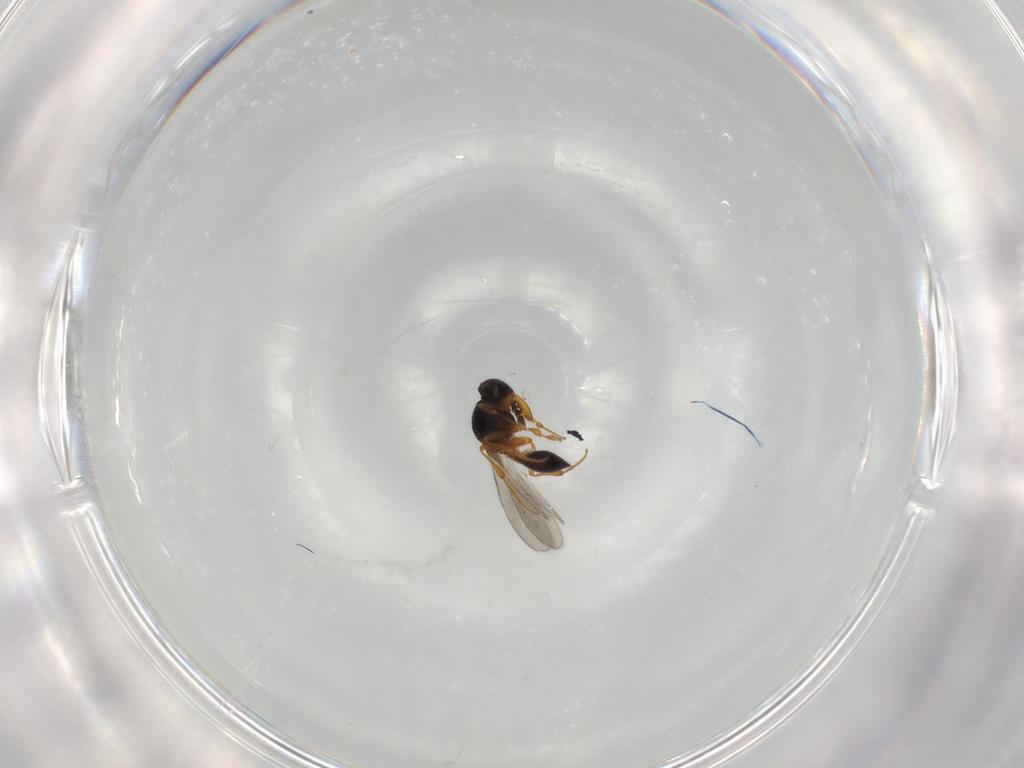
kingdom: Animalia
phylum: Arthropoda
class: Insecta
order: Hymenoptera
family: Platygastridae
